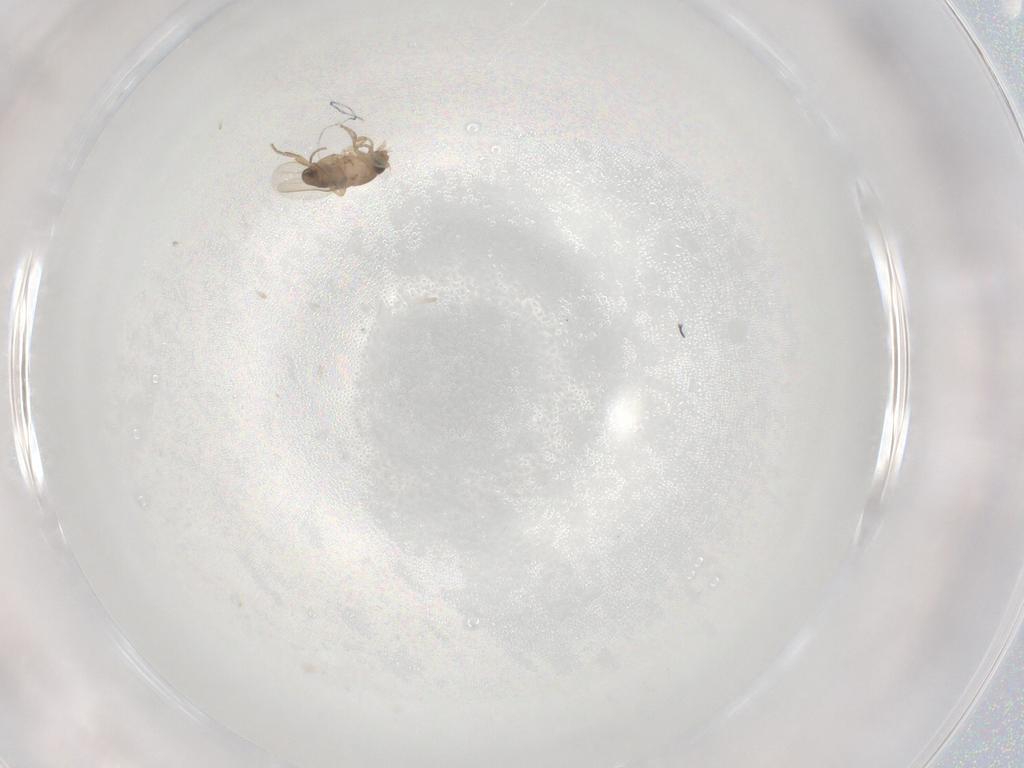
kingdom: Animalia
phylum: Arthropoda
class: Insecta
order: Diptera
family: Phoridae
